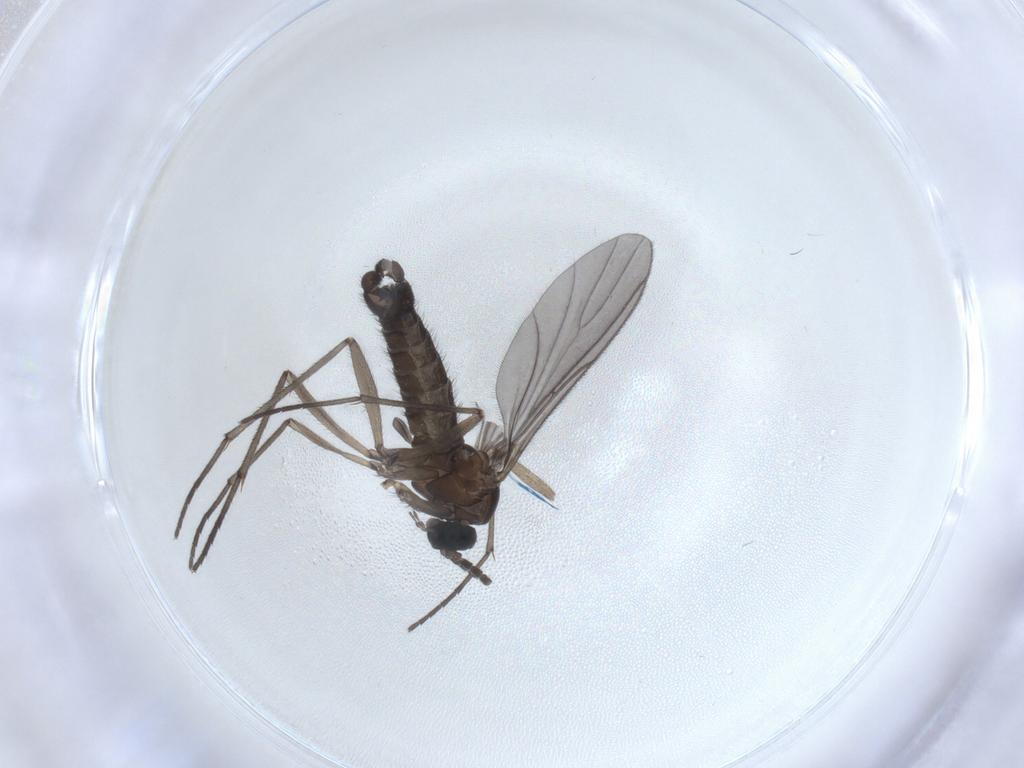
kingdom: Animalia
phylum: Arthropoda
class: Insecta
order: Diptera
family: Sciaridae
